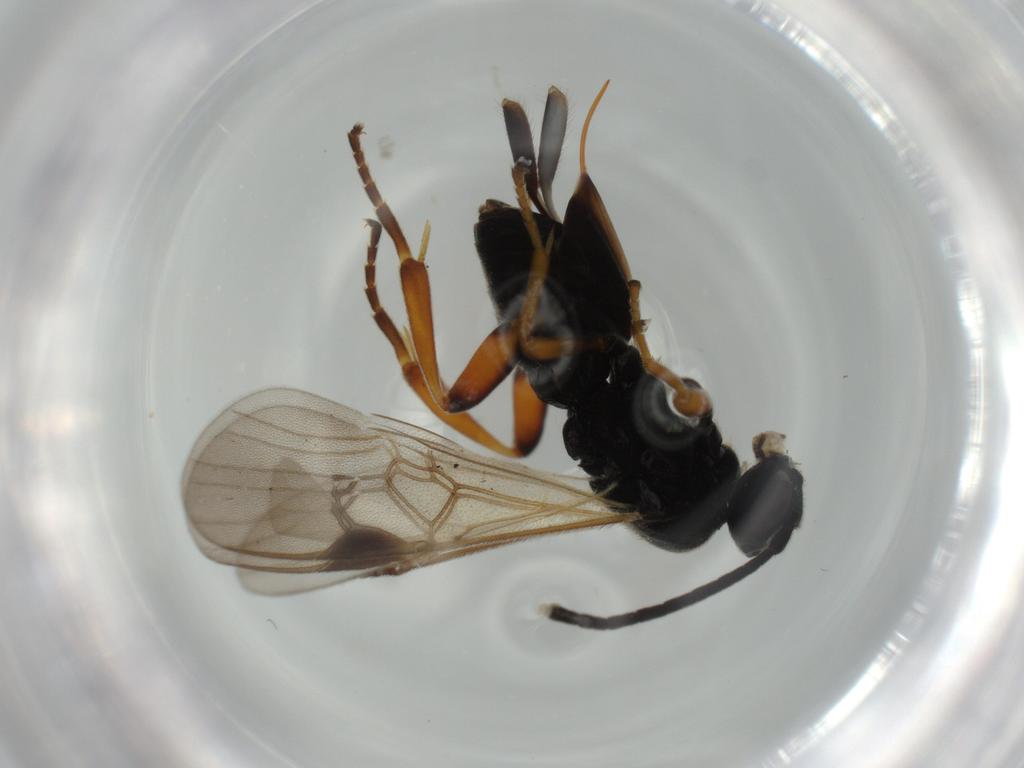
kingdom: Animalia
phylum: Arthropoda
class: Insecta
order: Hymenoptera
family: Braconidae
